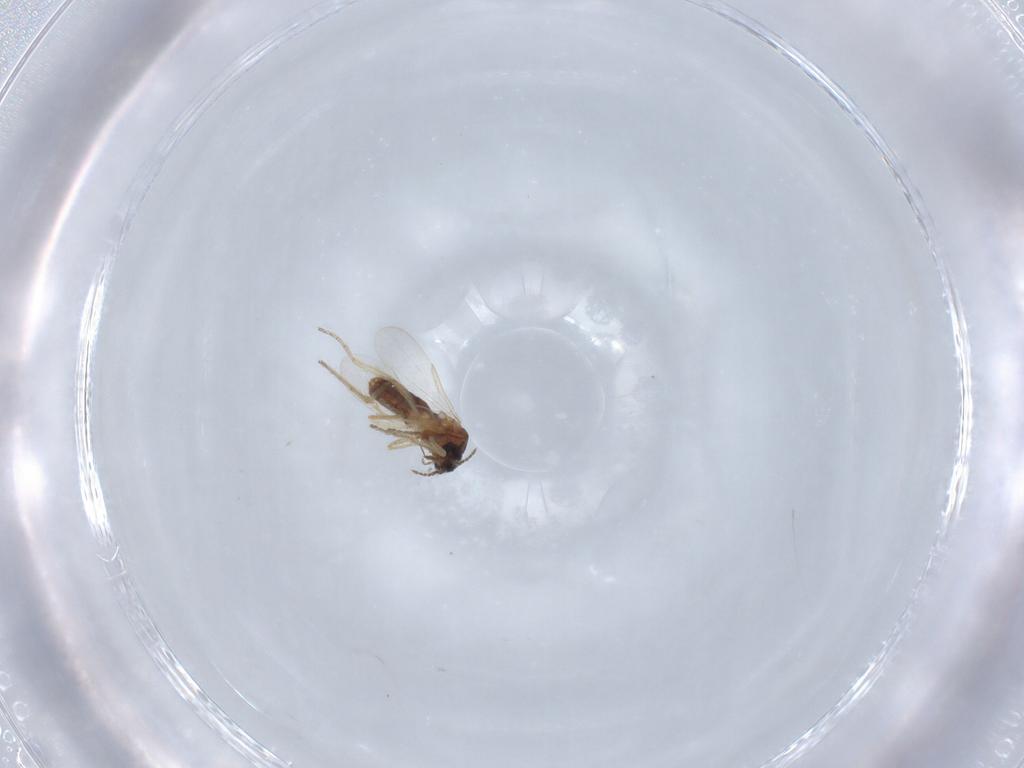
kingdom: Animalia
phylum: Arthropoda
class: Insecta
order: Diptera
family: Ceratopogonidae
